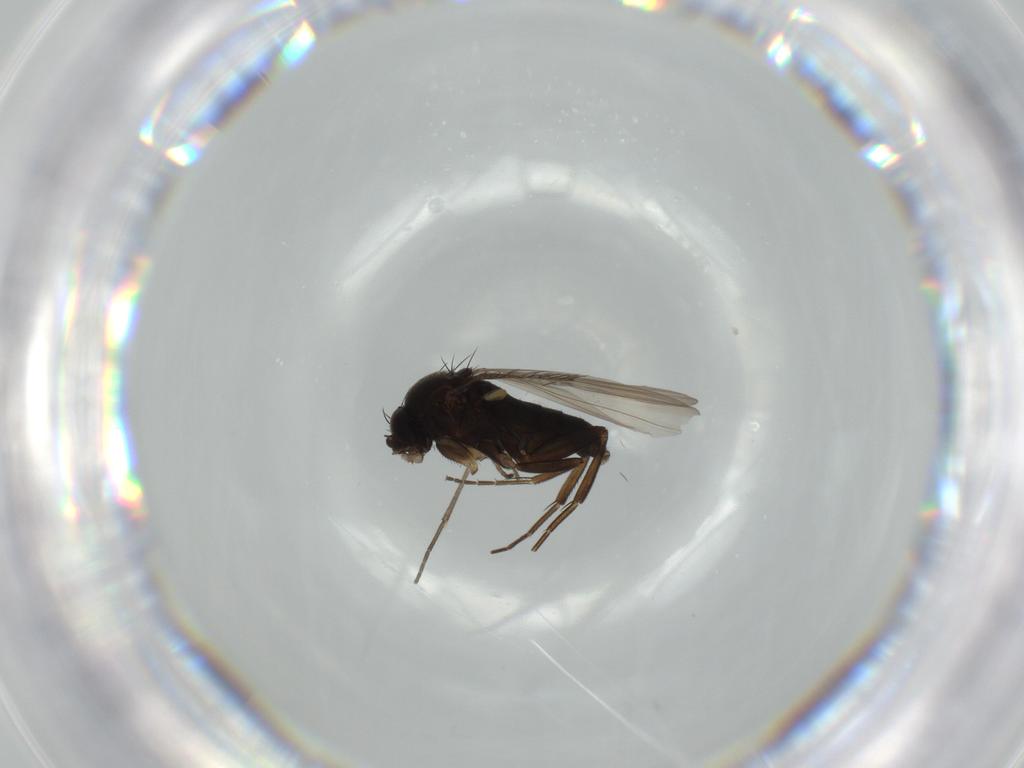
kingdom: Animalia
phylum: Arthropoda
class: Insecta
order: Diptera
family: Phoridae
